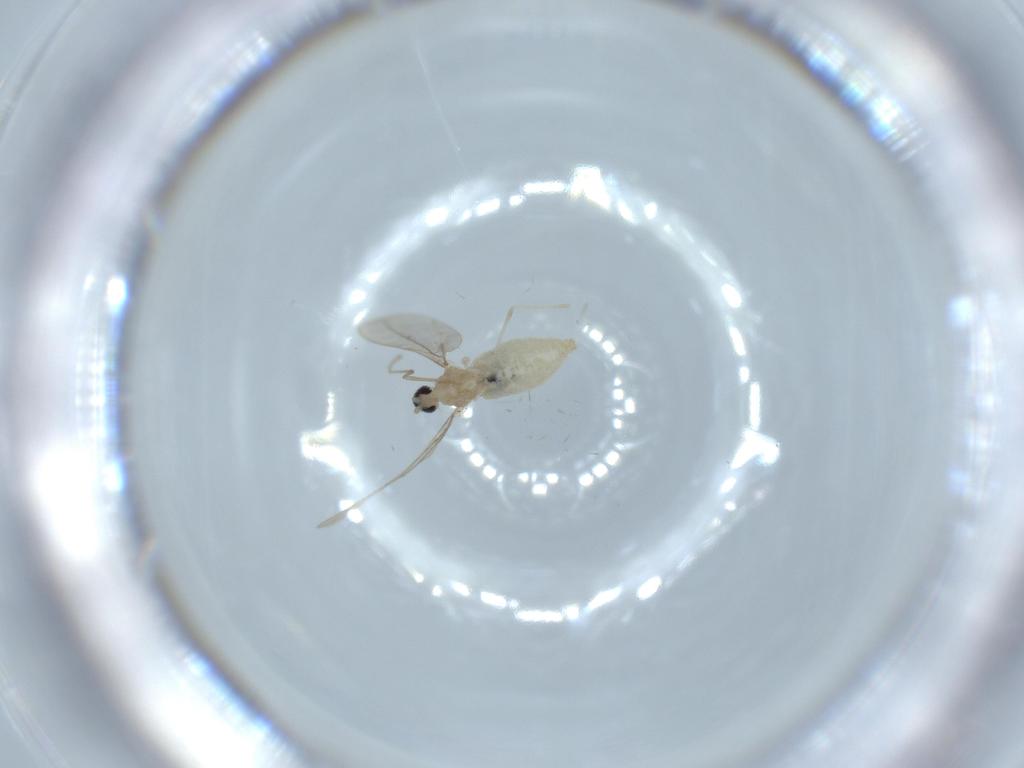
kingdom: Animalia
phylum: Arthropoda
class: Insecta
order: Diptera
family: Cecidomyiidae
